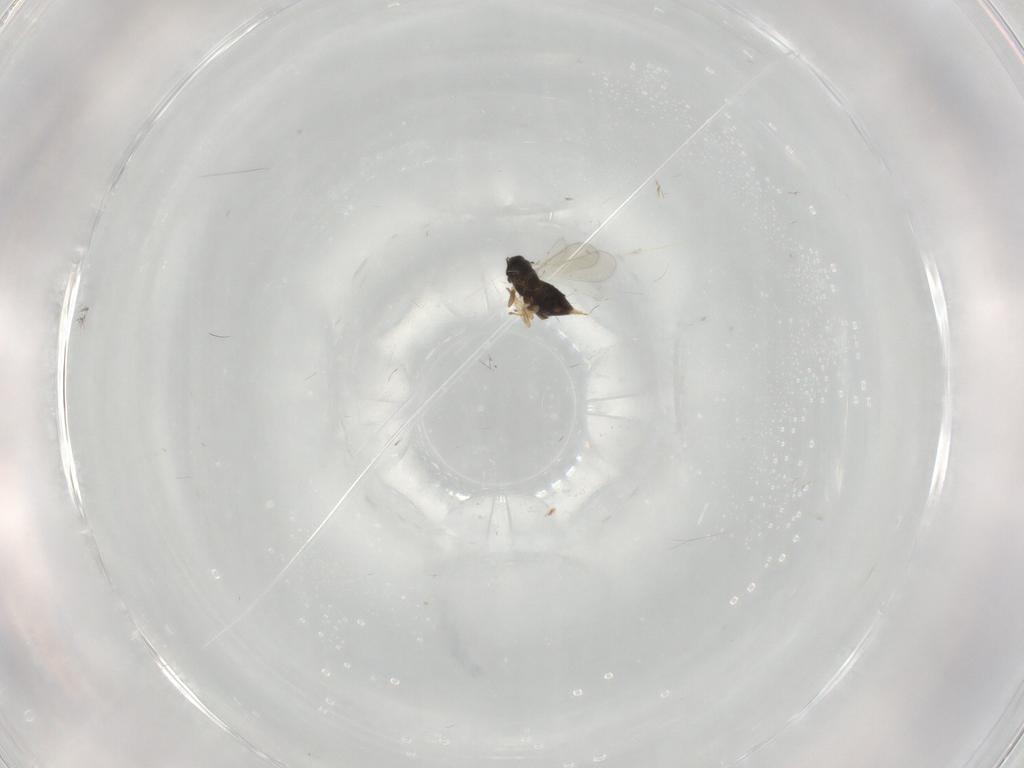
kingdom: Animalia
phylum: Arthropoda
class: Insecta
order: Hymenoptera
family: Aphelinidae
